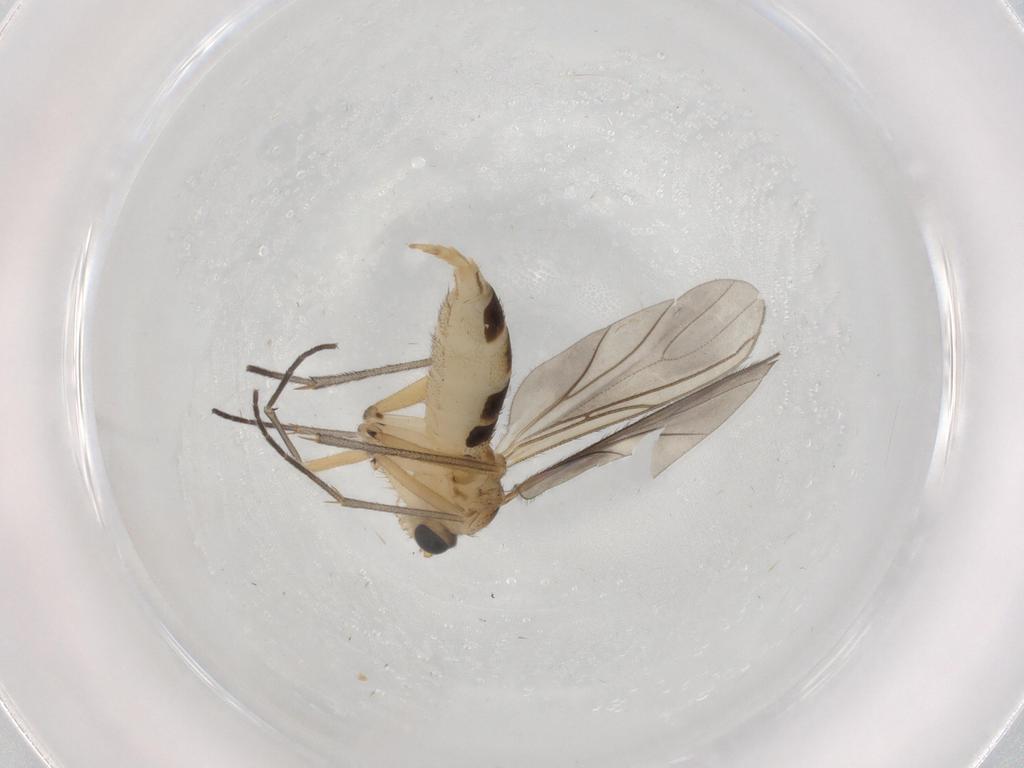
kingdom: Animalia
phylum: Arthropoda
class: Insecta
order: Diptera
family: Sciaridae
